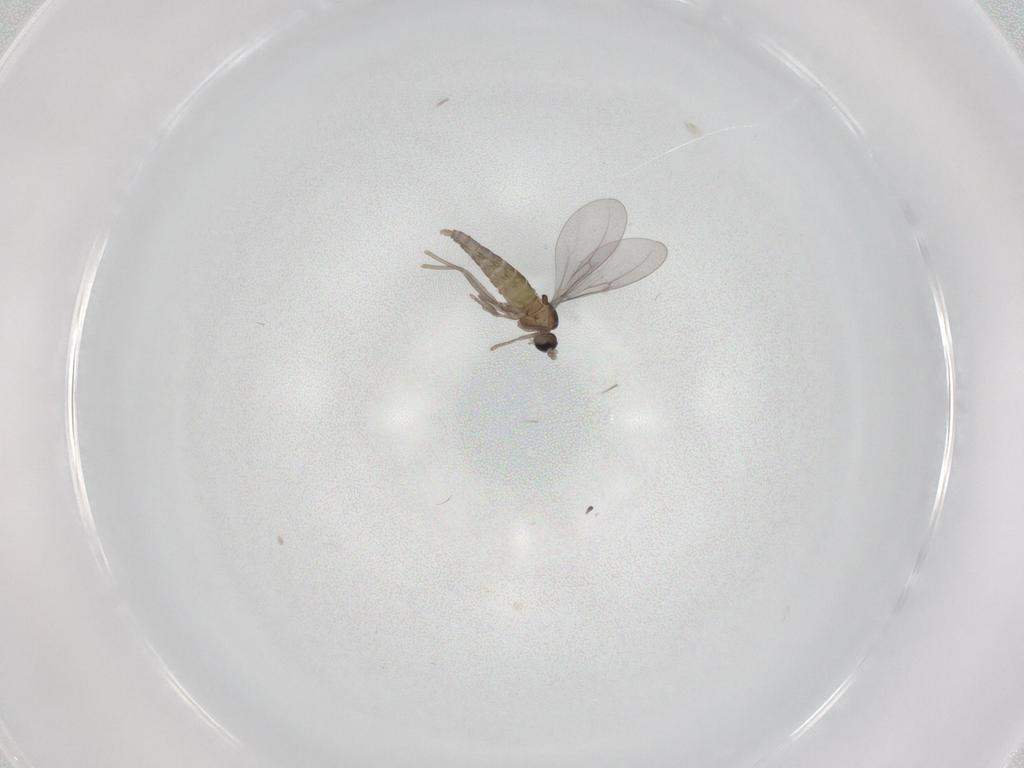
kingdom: Animalia
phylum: Arthropoda
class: Insecta
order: Diptera
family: Cecidomyiidae
